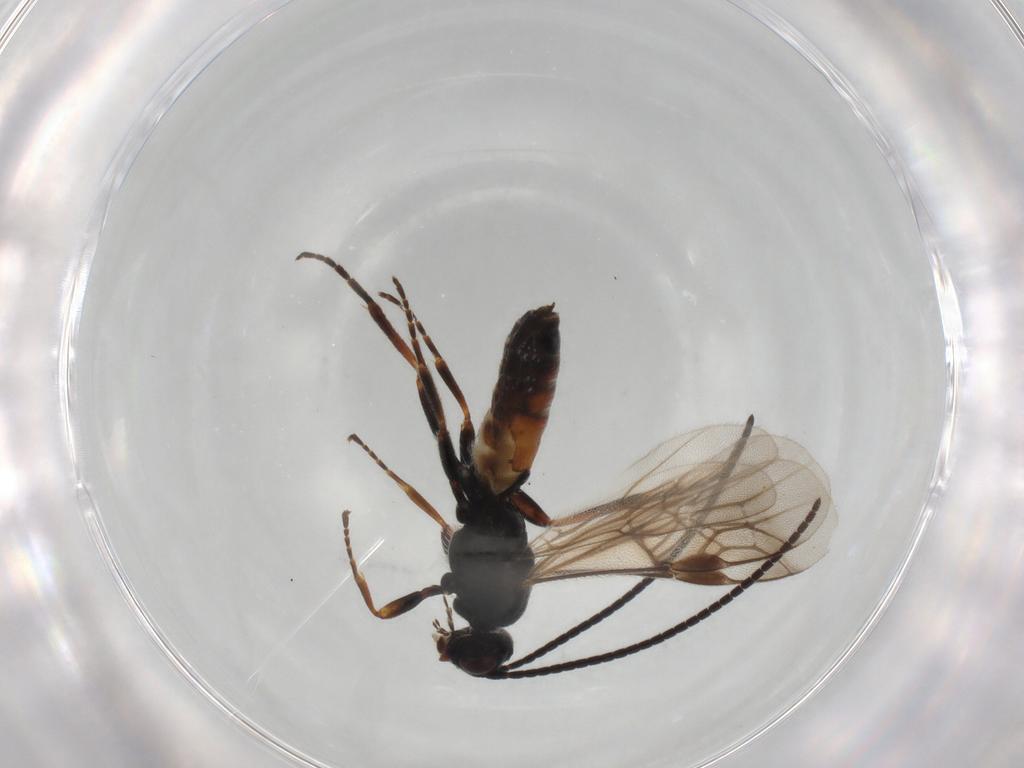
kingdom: Animalia
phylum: Arthropoda
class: Insecta
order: Hymenoptera
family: Braconidae
